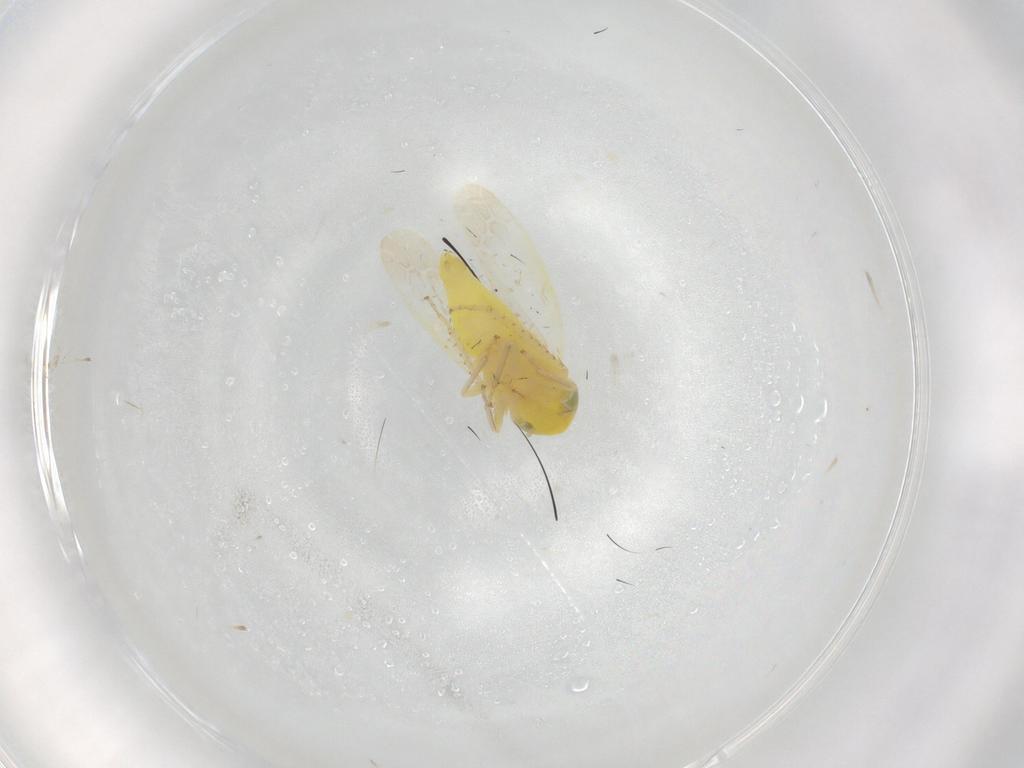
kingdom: Animalia
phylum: Arthropoda
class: Insecta
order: Hemiptera
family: Cicadellidae
